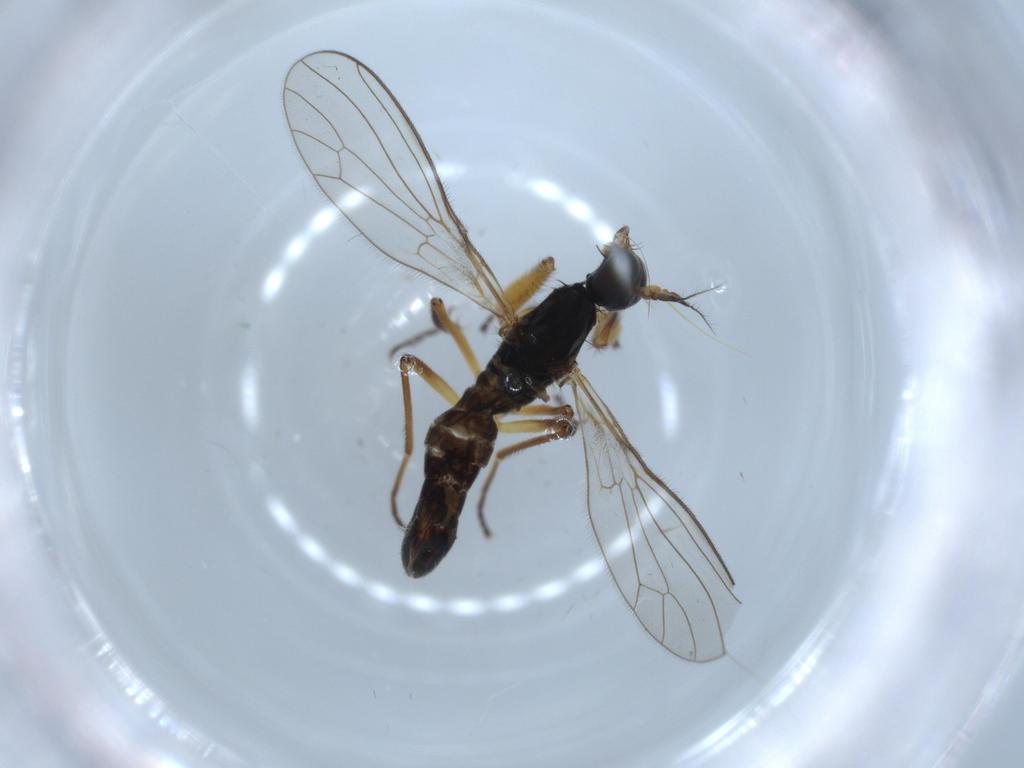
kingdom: Animalia
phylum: Arthropoda
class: Insecta
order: Diptera
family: Empididae
